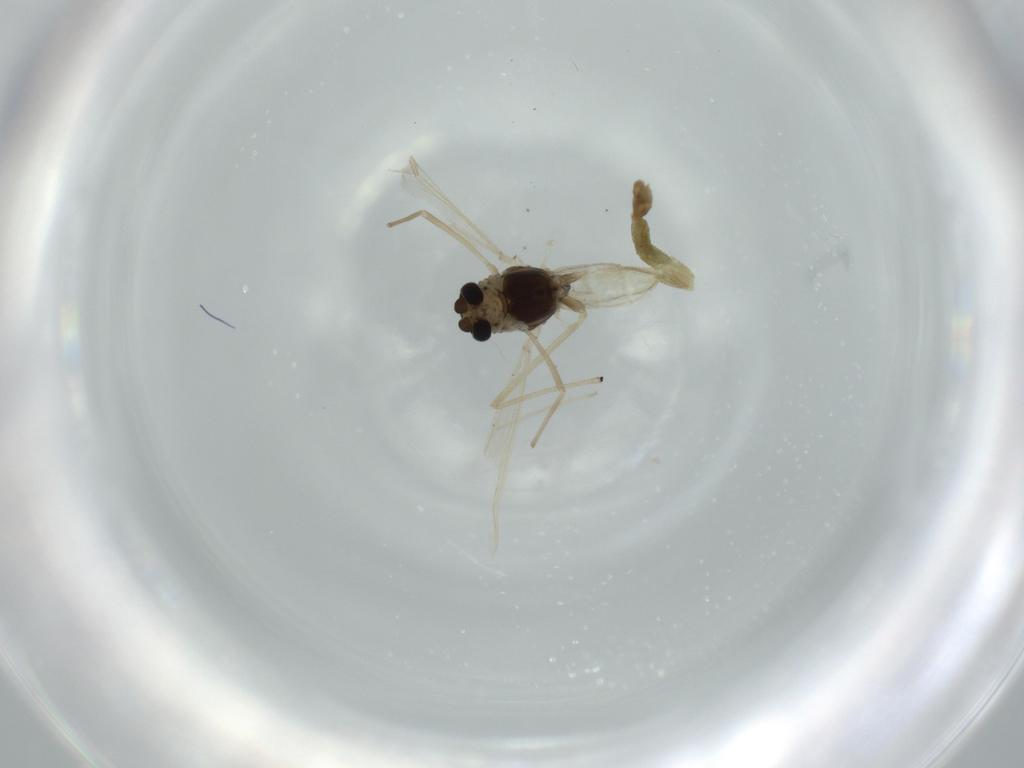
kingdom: Animalia
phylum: Arthropoda
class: Insecta
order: Diptera
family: Chironomidae
